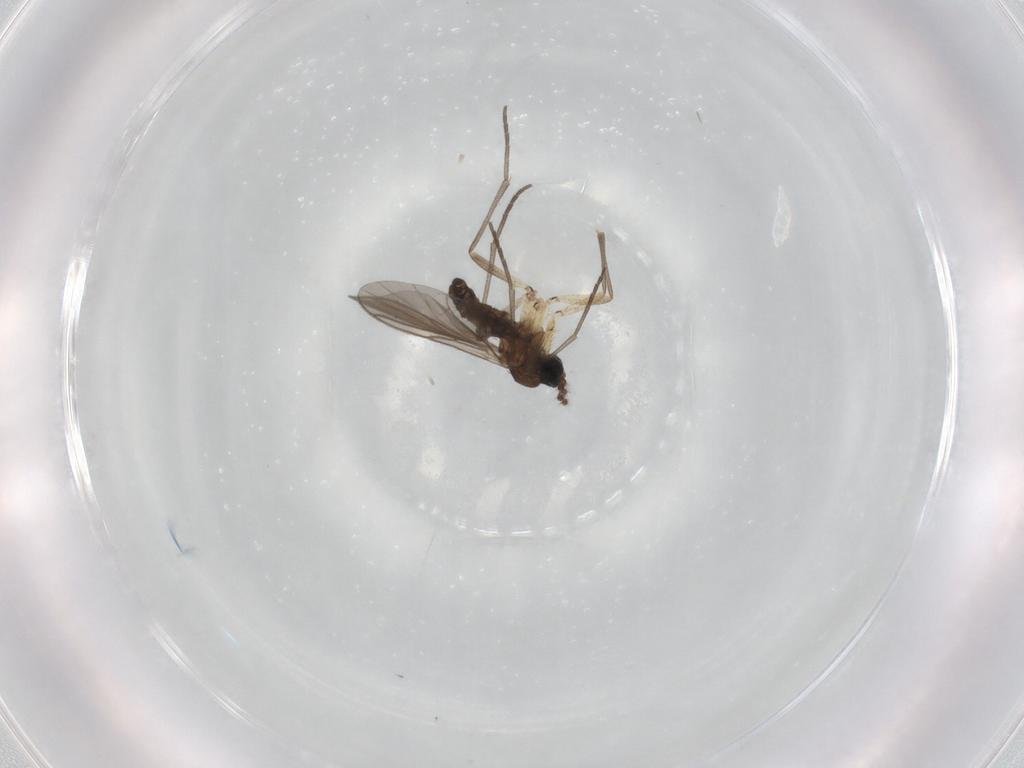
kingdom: Animalia
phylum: Arthropoda
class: Insecta
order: Diptera
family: Sciaridae
